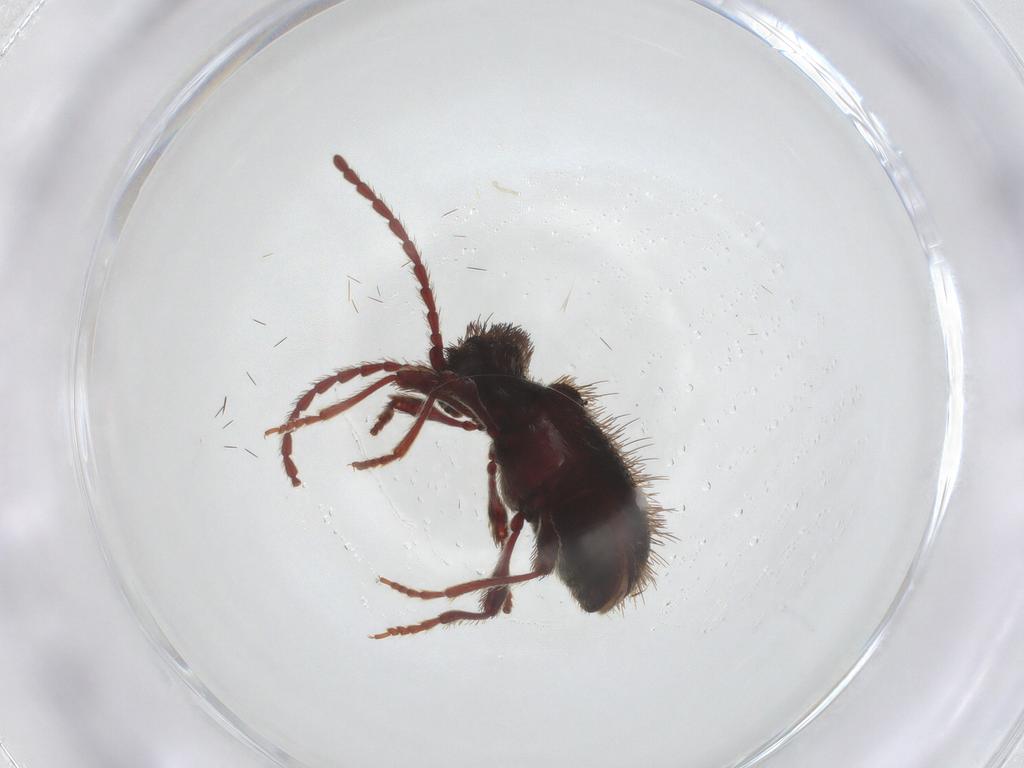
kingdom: Animalia
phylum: Arthropoda
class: Insecta
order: Coleoptera
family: Ptinidae
